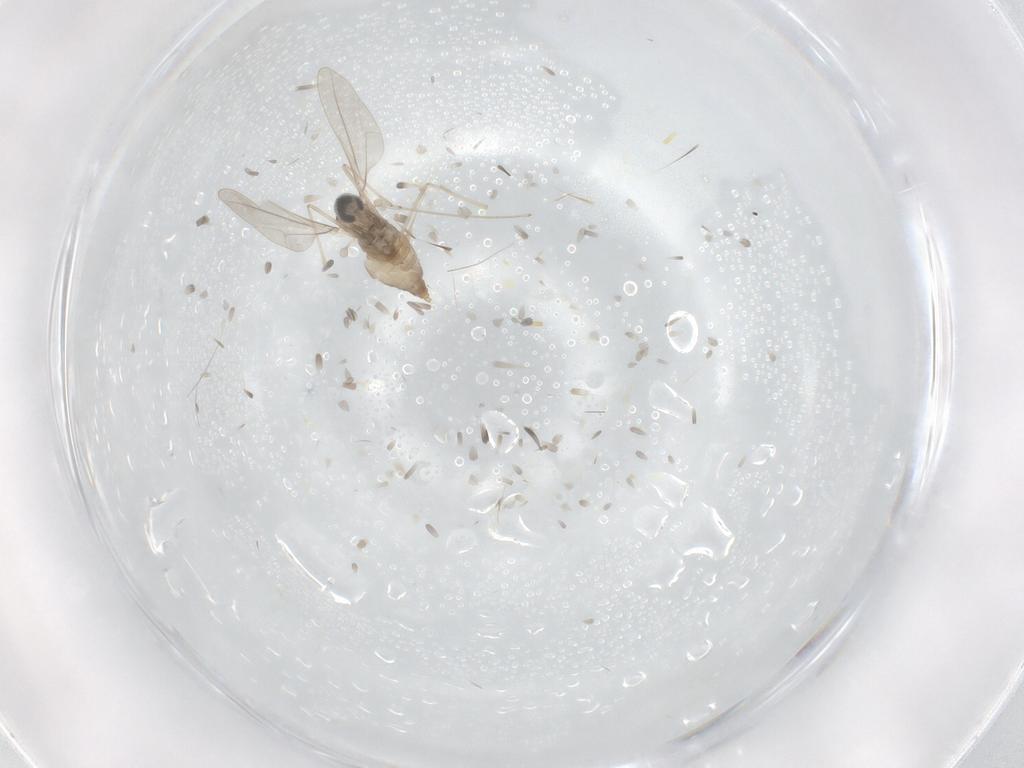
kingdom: Animalia
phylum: Arthropoda
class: Insecta
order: Diptera
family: Cecidomyiidae
